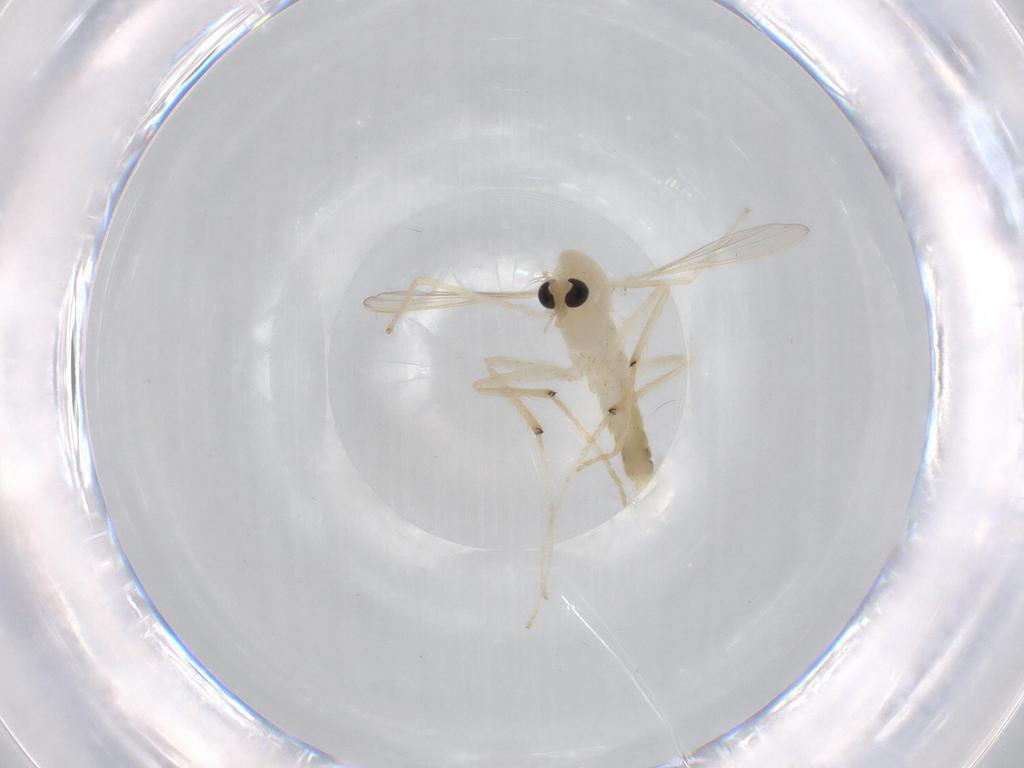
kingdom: Animalia
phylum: Arthropoda
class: Insecta
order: Diptera
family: Chironomidae
